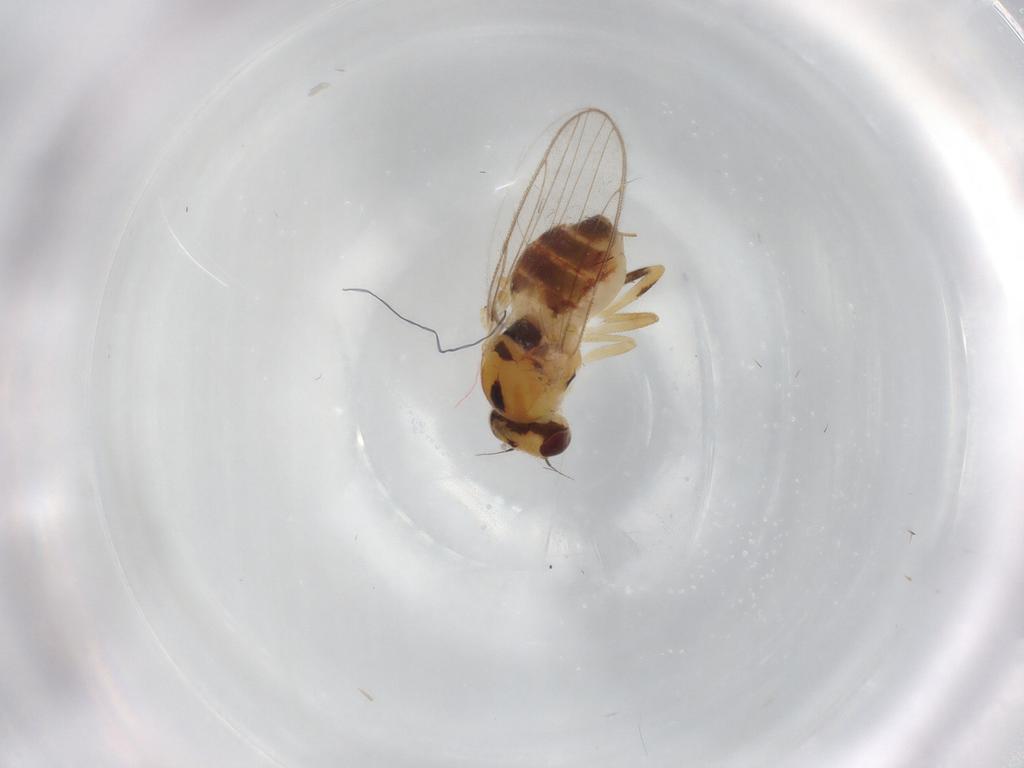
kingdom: Animalia
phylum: Arthropoda
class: Insecta
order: Diptera
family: Chloropidae
